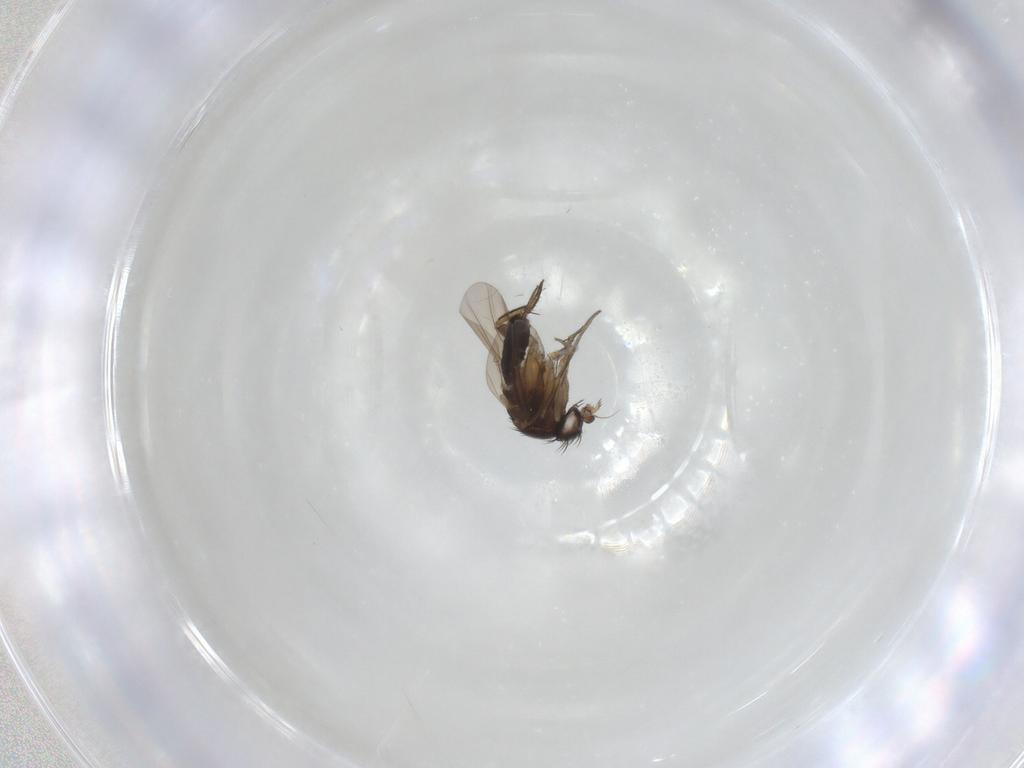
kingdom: Animalia
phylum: Arthropoda
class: Insecta
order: Diptera
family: Phoridae
